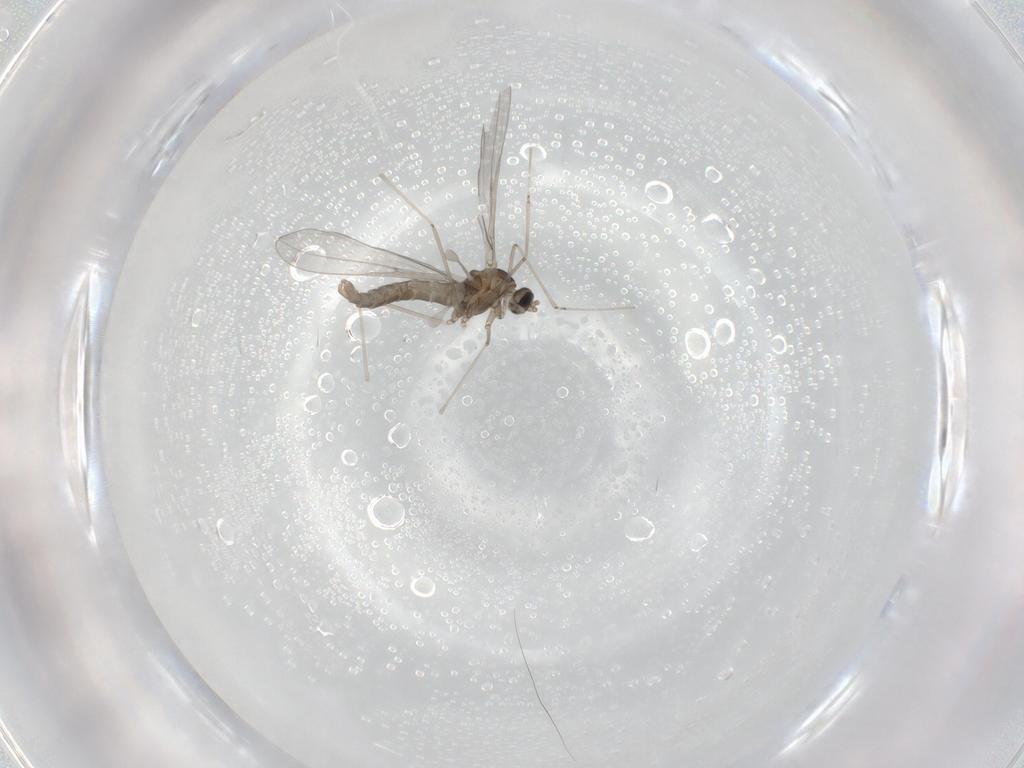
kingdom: Animalia
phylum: Arthropoda
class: Insecta
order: Diptera
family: Cecidomyiidae
